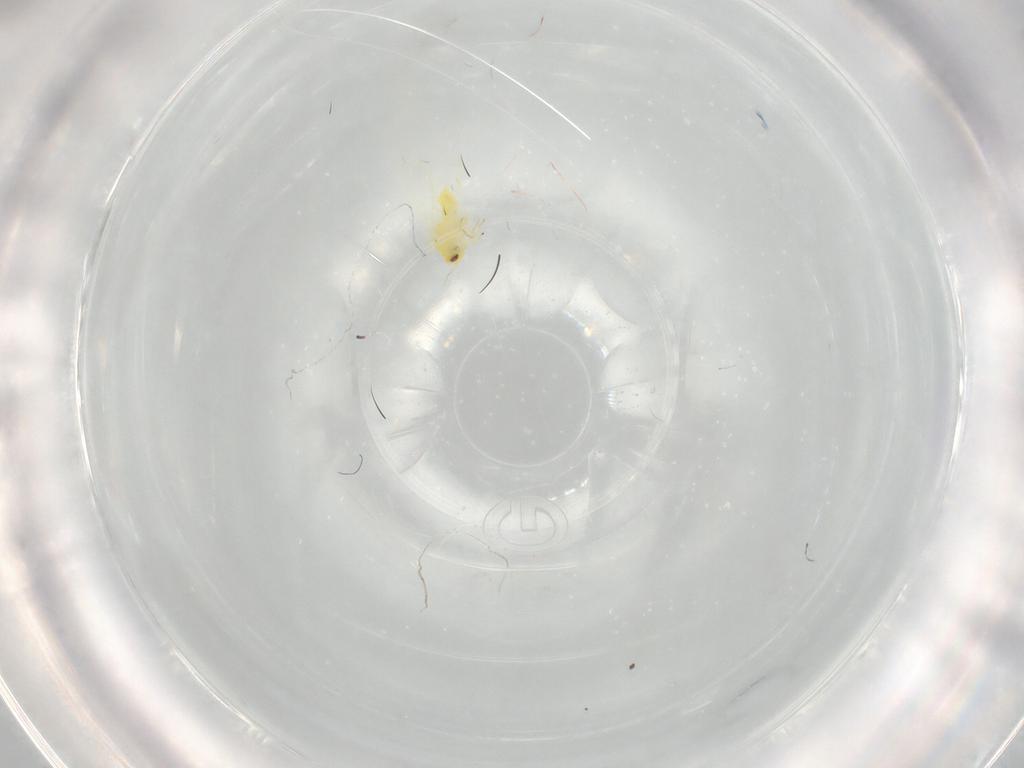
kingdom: Animalia
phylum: Arthropoda
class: Insecta
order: Hemiptera
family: Aleyrodidae
